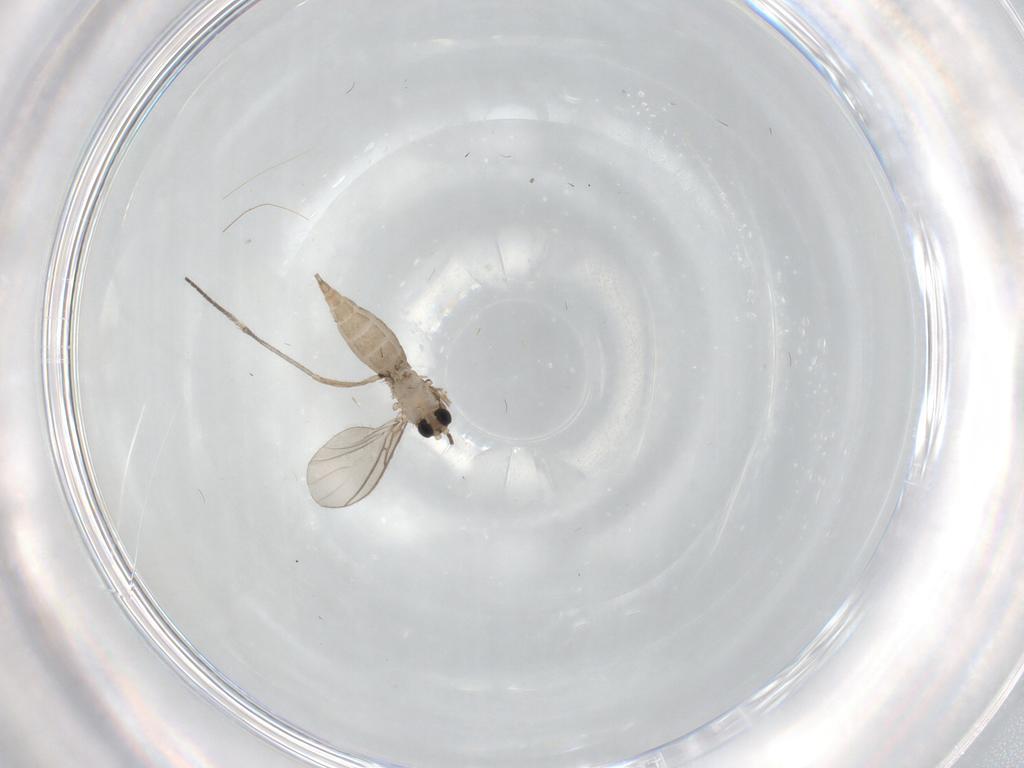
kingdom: Animalia
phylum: Arthropoda
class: Insecta
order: Diptera
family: Sciaridae
